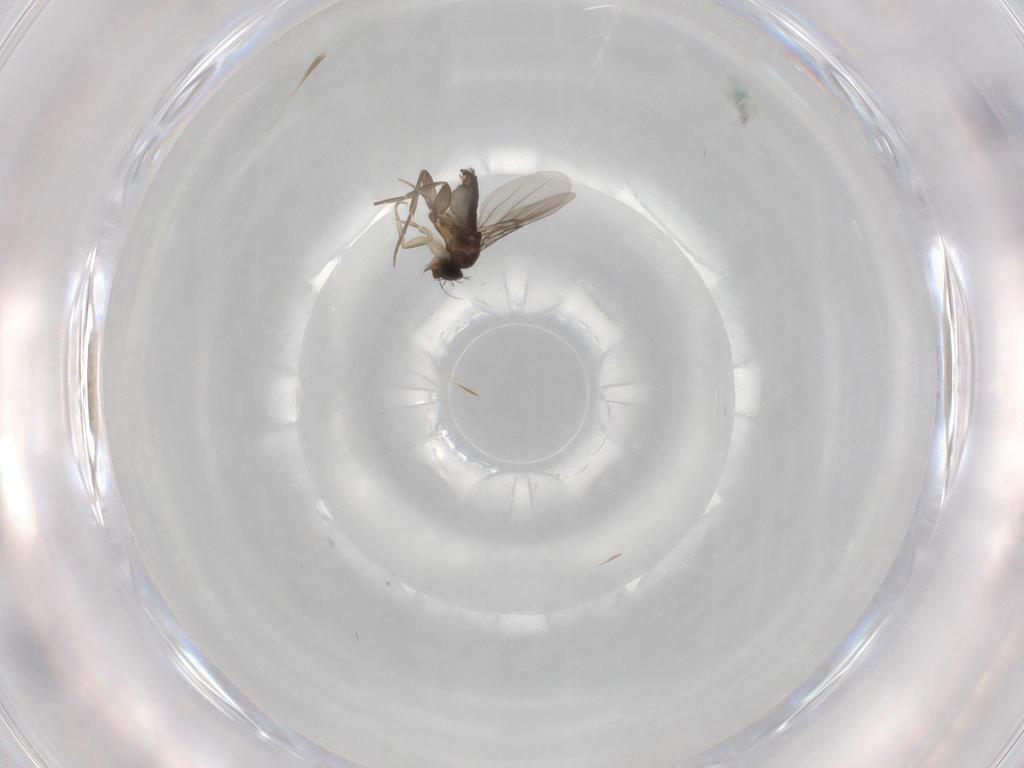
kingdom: Animalia
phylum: Arthropoda
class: Insecta
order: Diptera
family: Phoridae
